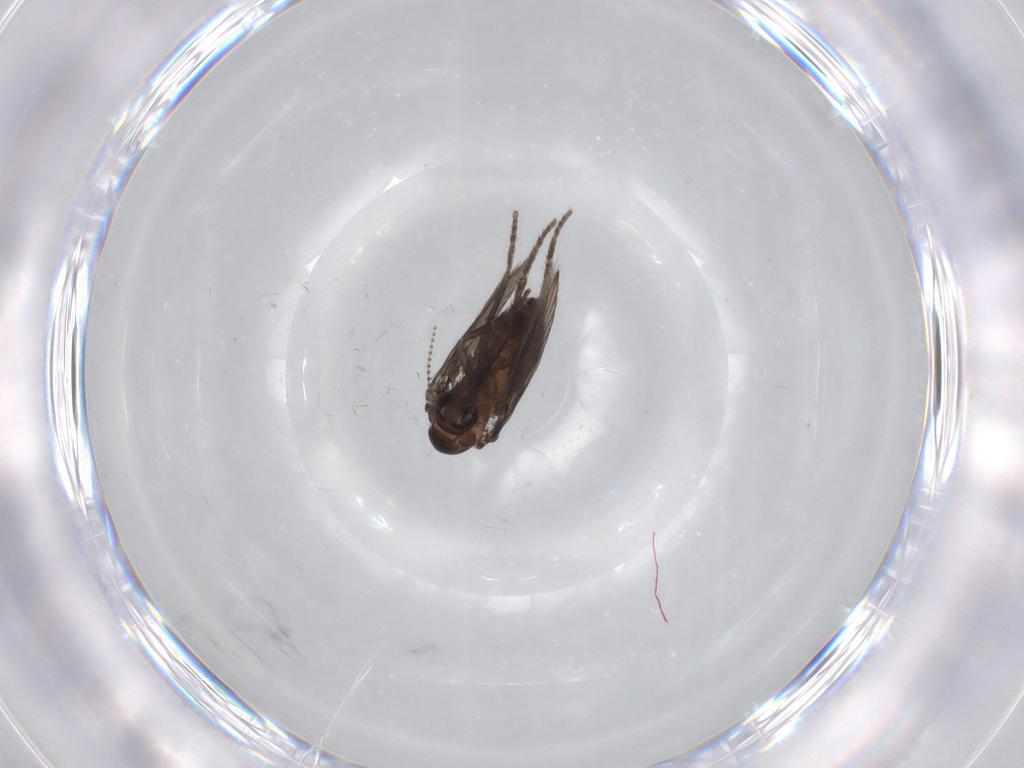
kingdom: Animalia
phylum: Arthropoda
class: Insecta
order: Diptera
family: Psychodidae
